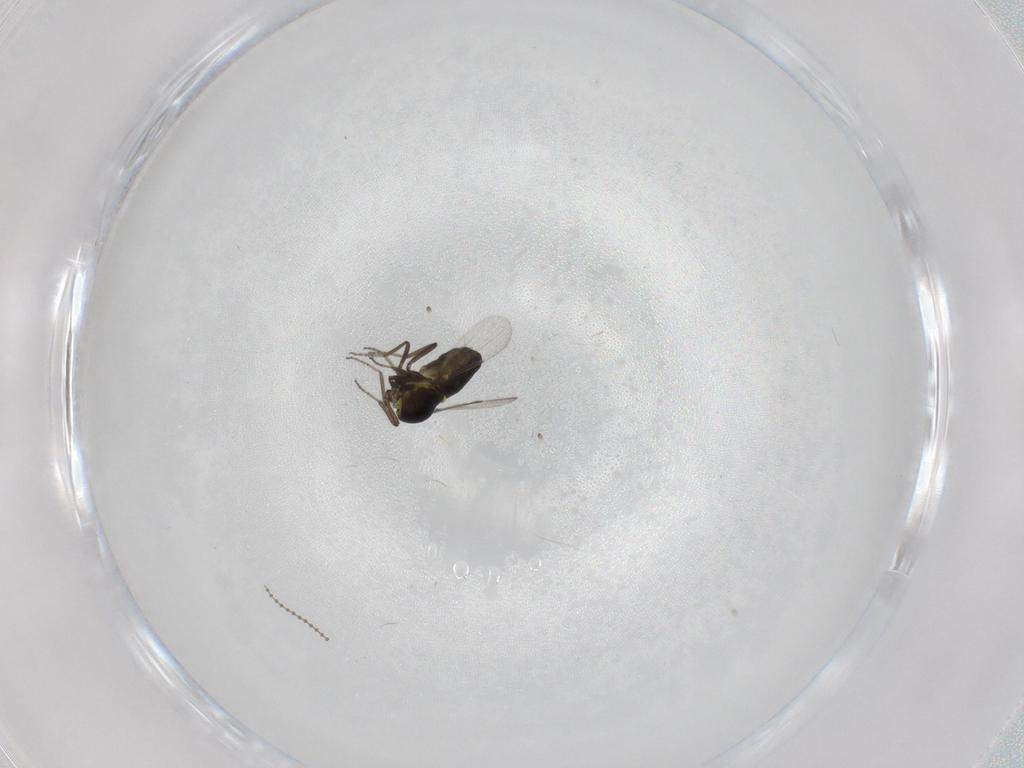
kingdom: Animalia
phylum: Arthropoda
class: Insecta
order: Diptera
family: Ceratopogonidae
